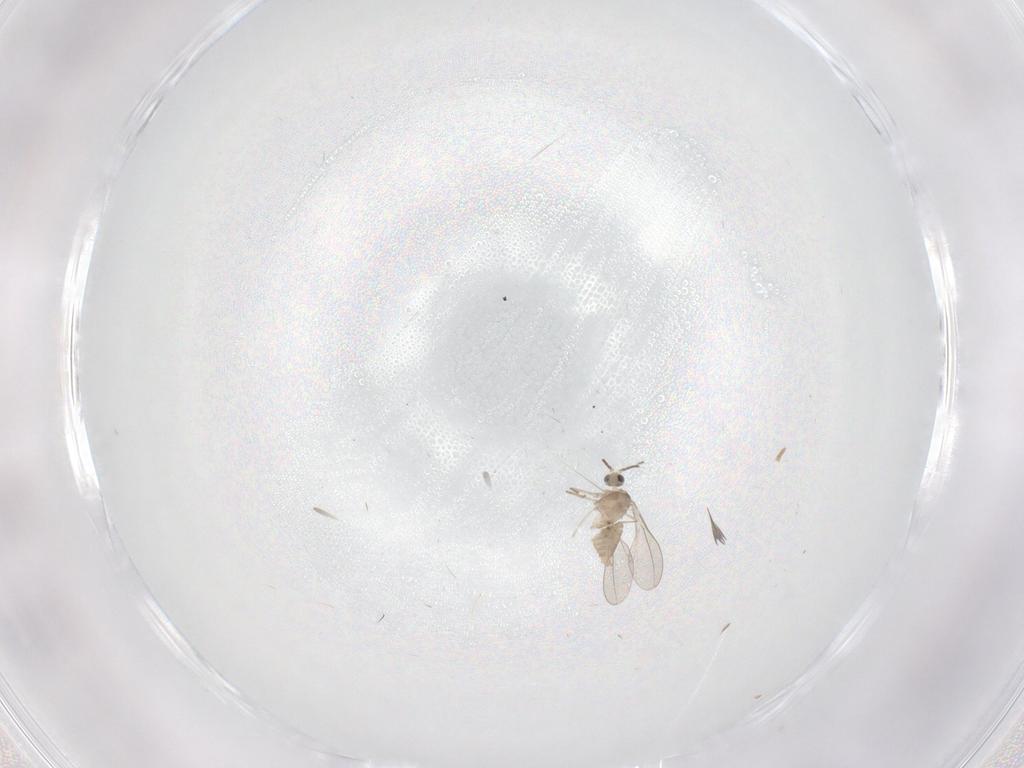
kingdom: Animalia
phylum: Arthropoda
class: Insecta
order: Diptera
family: Cecidomyiidae
